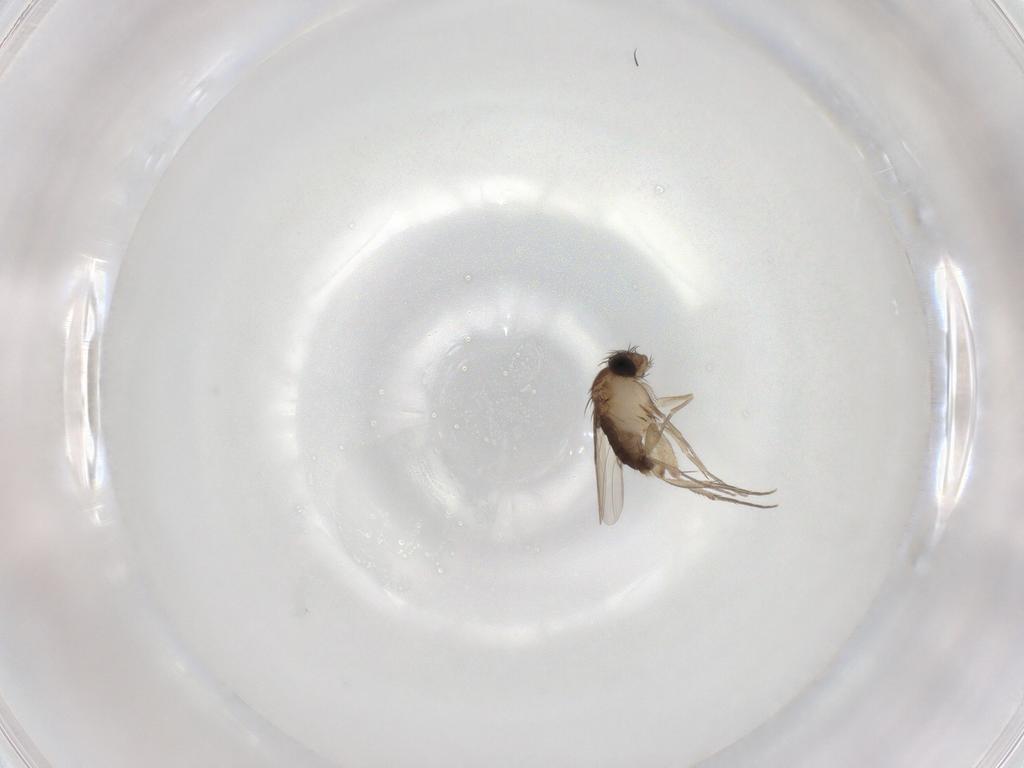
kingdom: Animalia
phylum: Arthropoda
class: Insecta
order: Diptera
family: Phoridae
